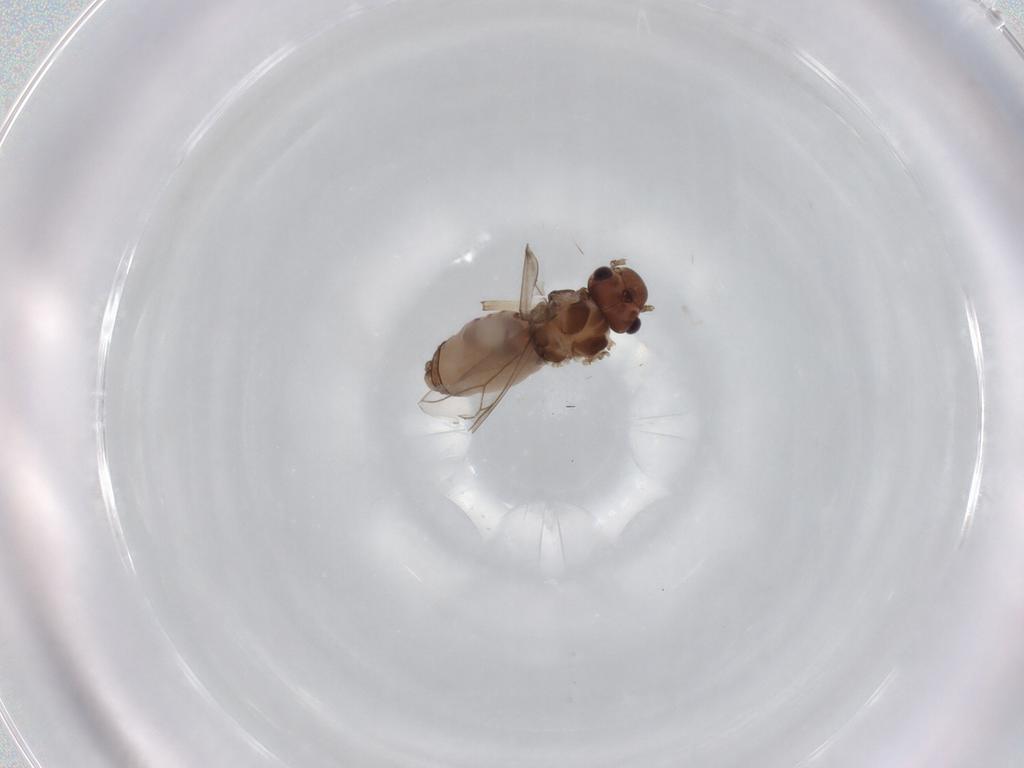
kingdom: Animalia
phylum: Arthropoda
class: Insecta
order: Psocodea
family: Peripsocidae
